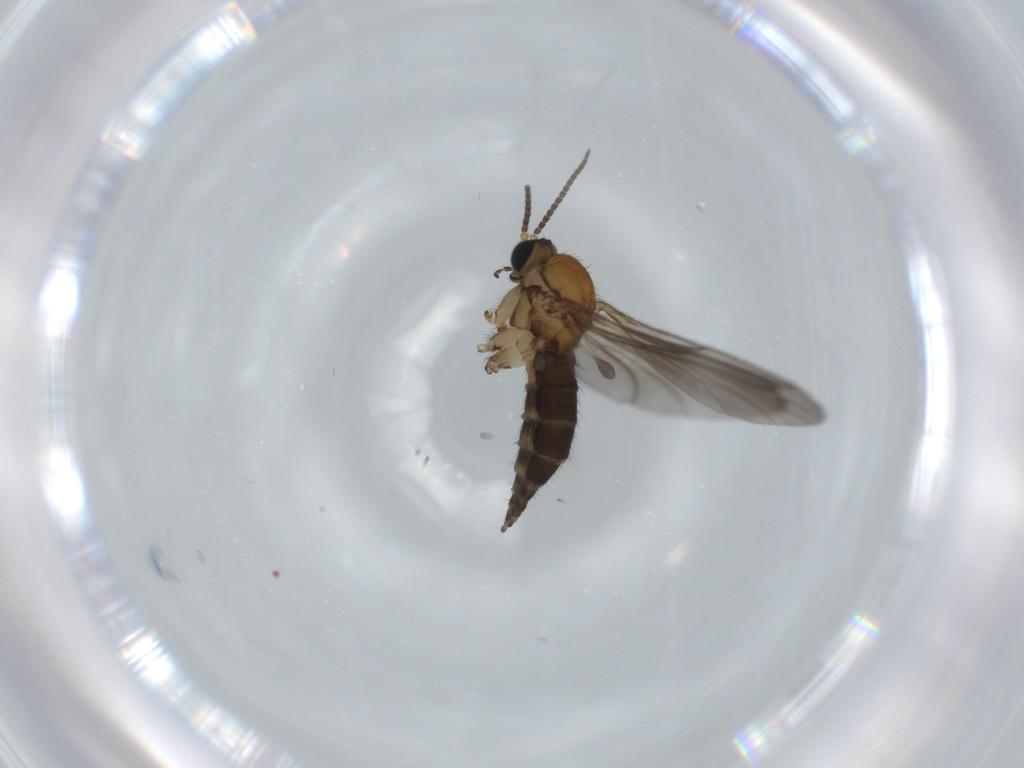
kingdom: Animalia
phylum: Arthropoda
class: Insecta
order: Diptera
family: Sciaridae
